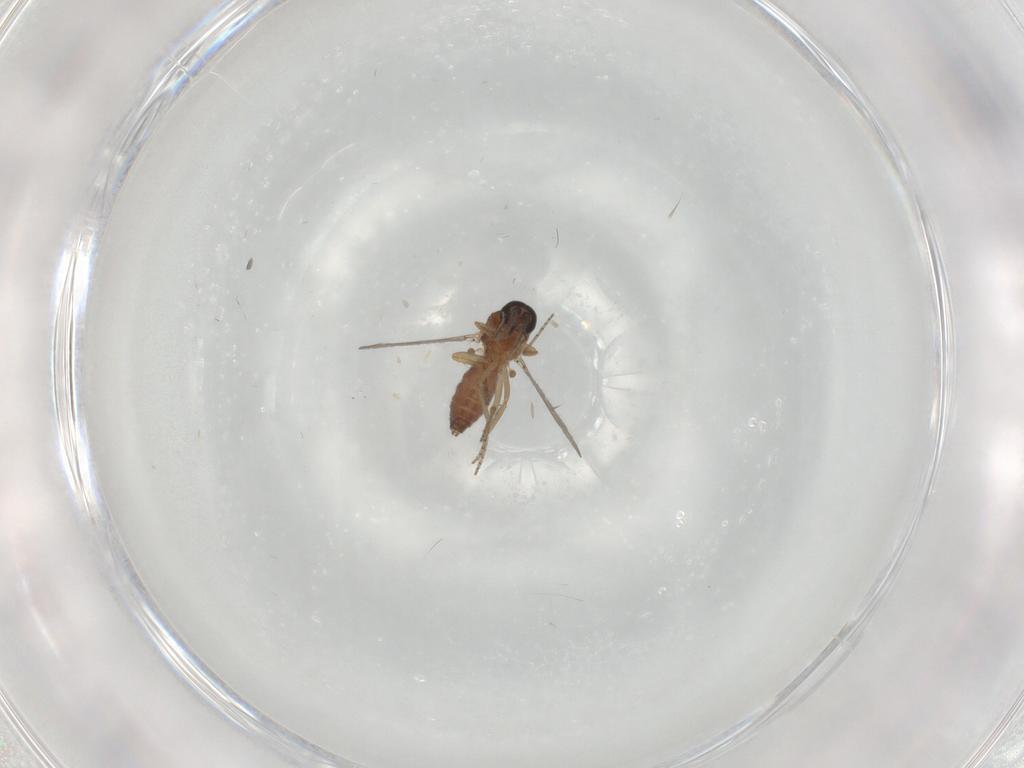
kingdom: Animalia
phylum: Arthropoda
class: Insecta
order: Diptera
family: Ceratopogonidae
